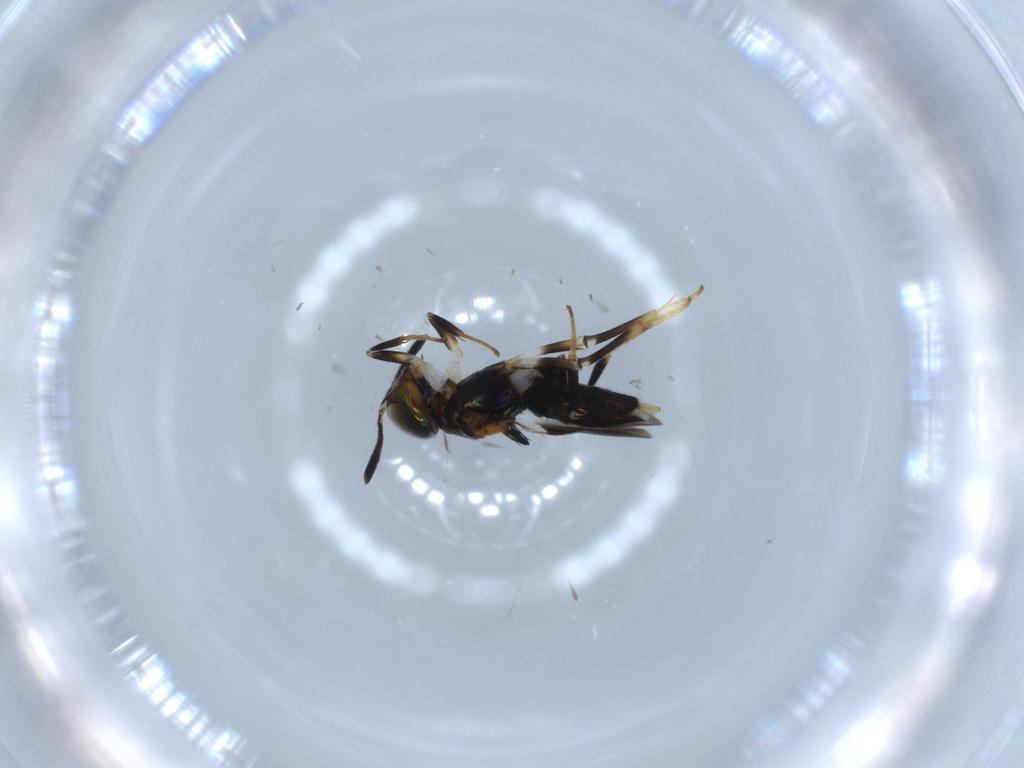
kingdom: Animalia
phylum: Arthropoda
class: Insecta
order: Hymenoptera
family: Formicidae
